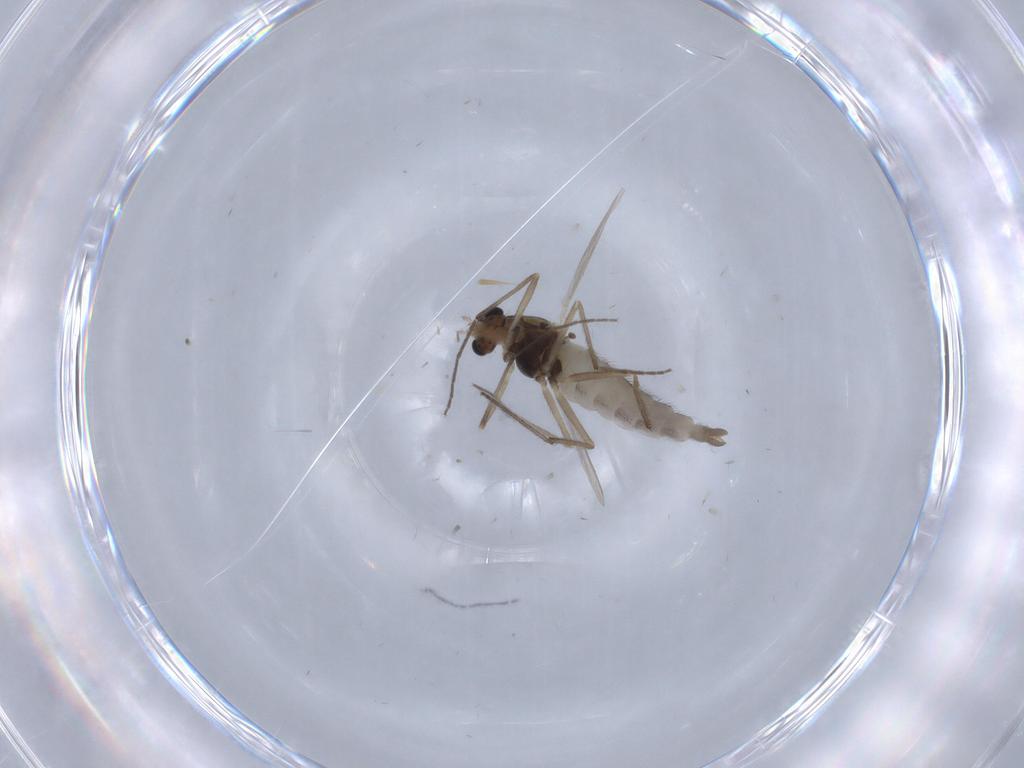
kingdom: Animalia
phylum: Arthropoda
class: Insecta
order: Diptera
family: Chironomidae
